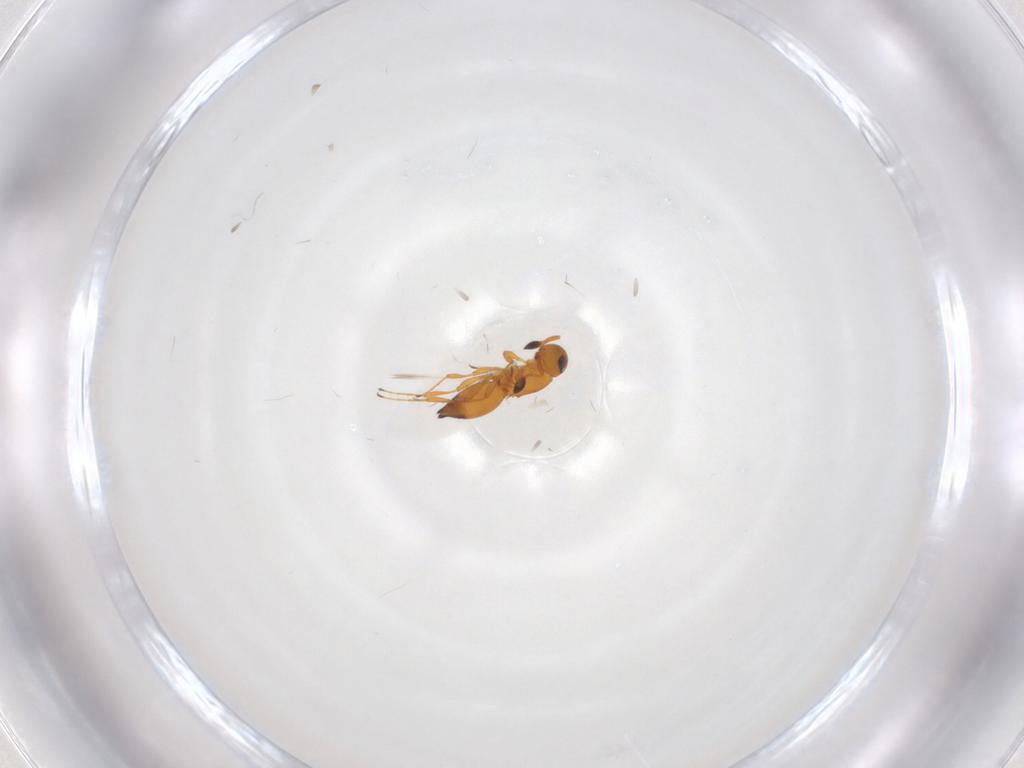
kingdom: Animalia
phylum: Arthropoda
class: Insecta
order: Hymenoptera
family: Platygastridae
